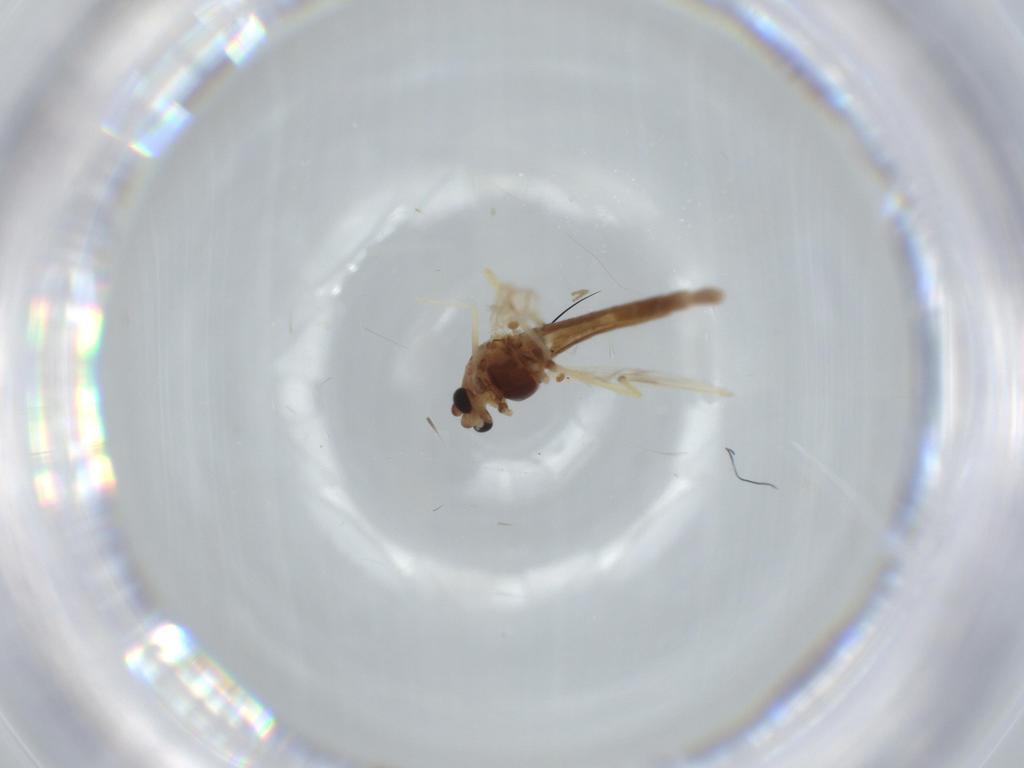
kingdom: Animalia
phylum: Arthropoda
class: Insecta
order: Diptera
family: Chironomidae
